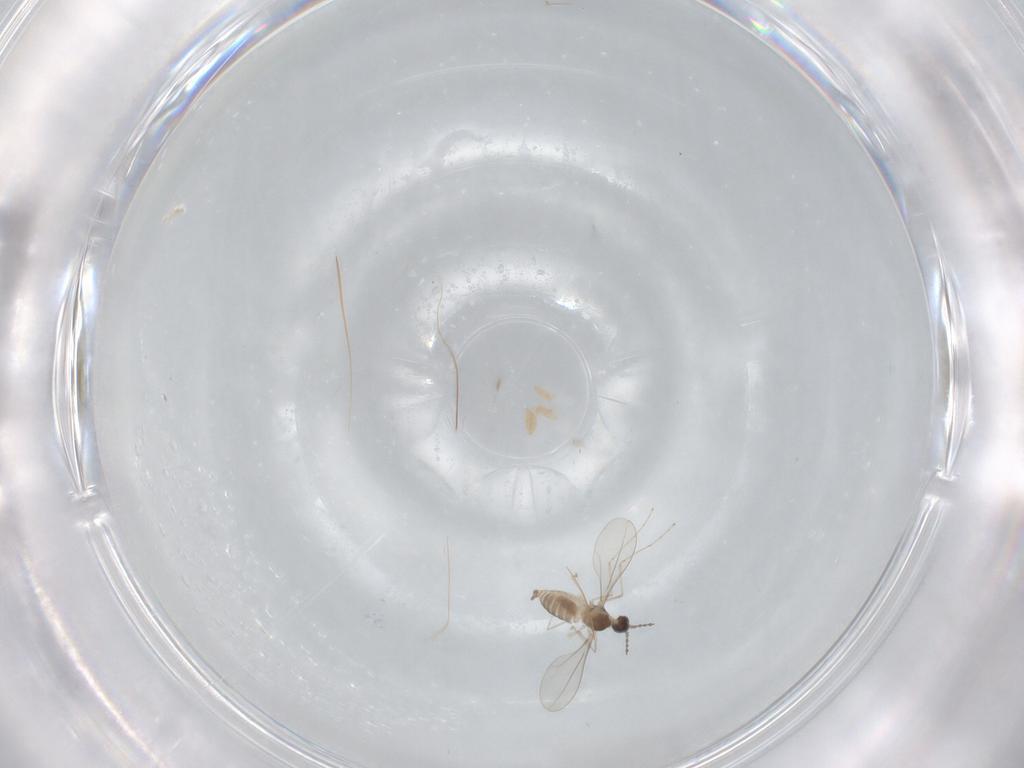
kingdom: Animalia
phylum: Arthropoda
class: Insecta
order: Diptera
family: Cecidomyiidae
